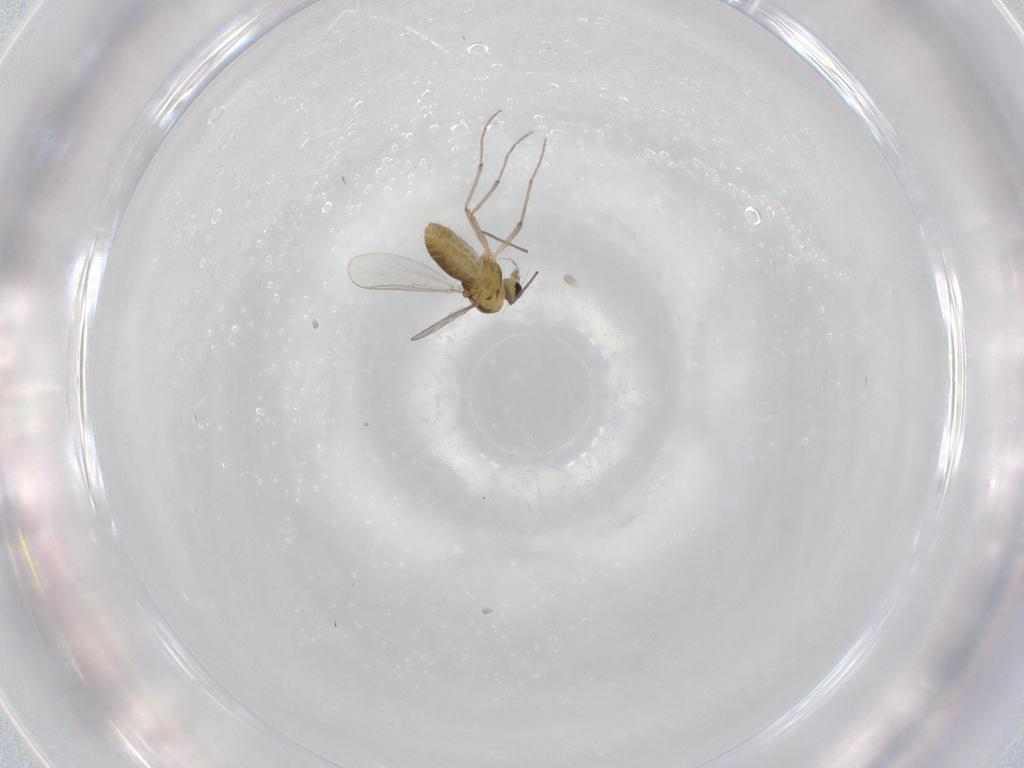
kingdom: Animalia
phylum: Arthropoda
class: Insecta
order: Diptera
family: Chironomidae
